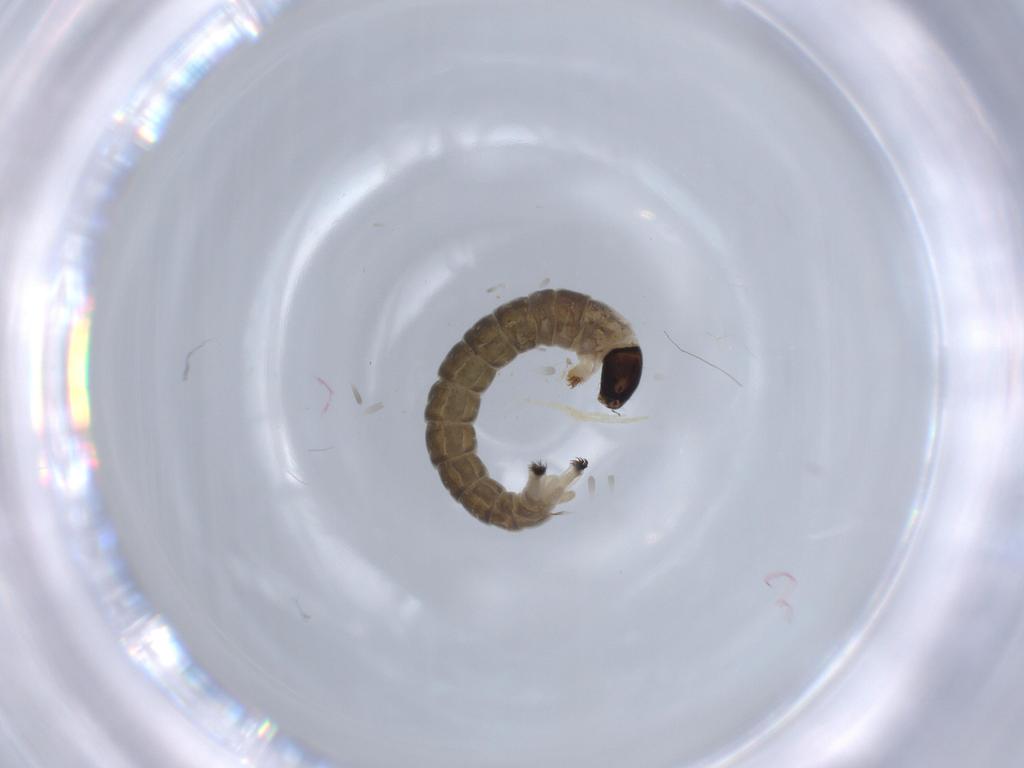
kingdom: Animalia
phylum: Arthropoda
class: Insecta
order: Diptera
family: Chironomidae
